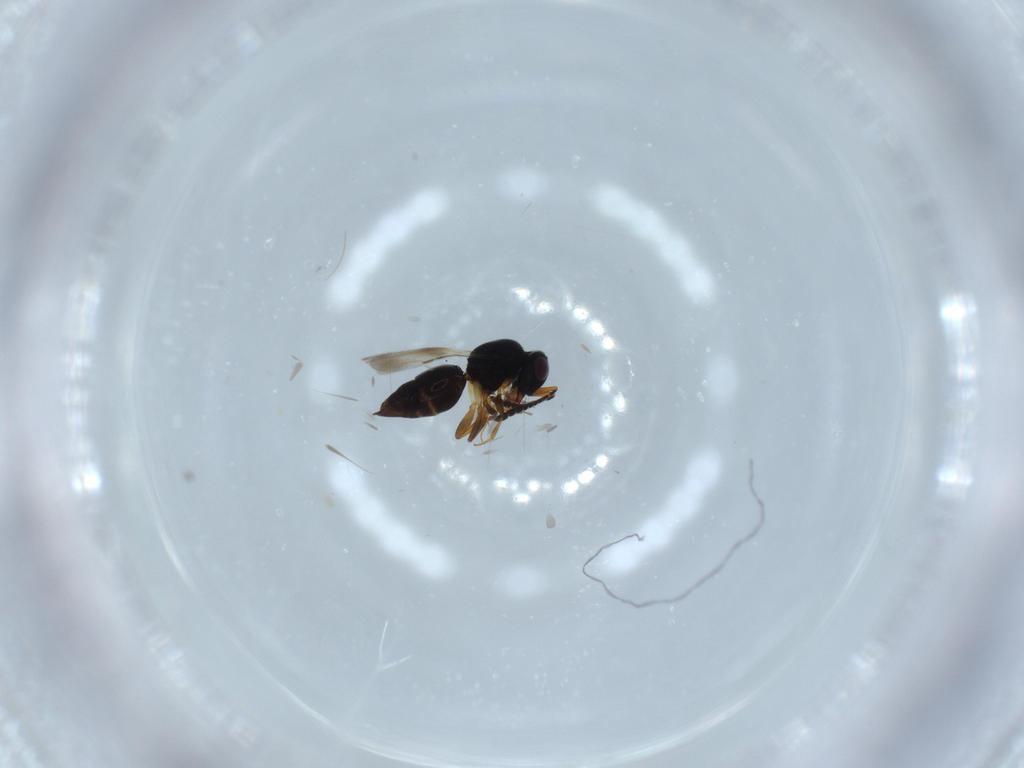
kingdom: Animalia
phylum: Arthropoda
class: Insecta
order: Hymenoptera
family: Ceraphronidae
